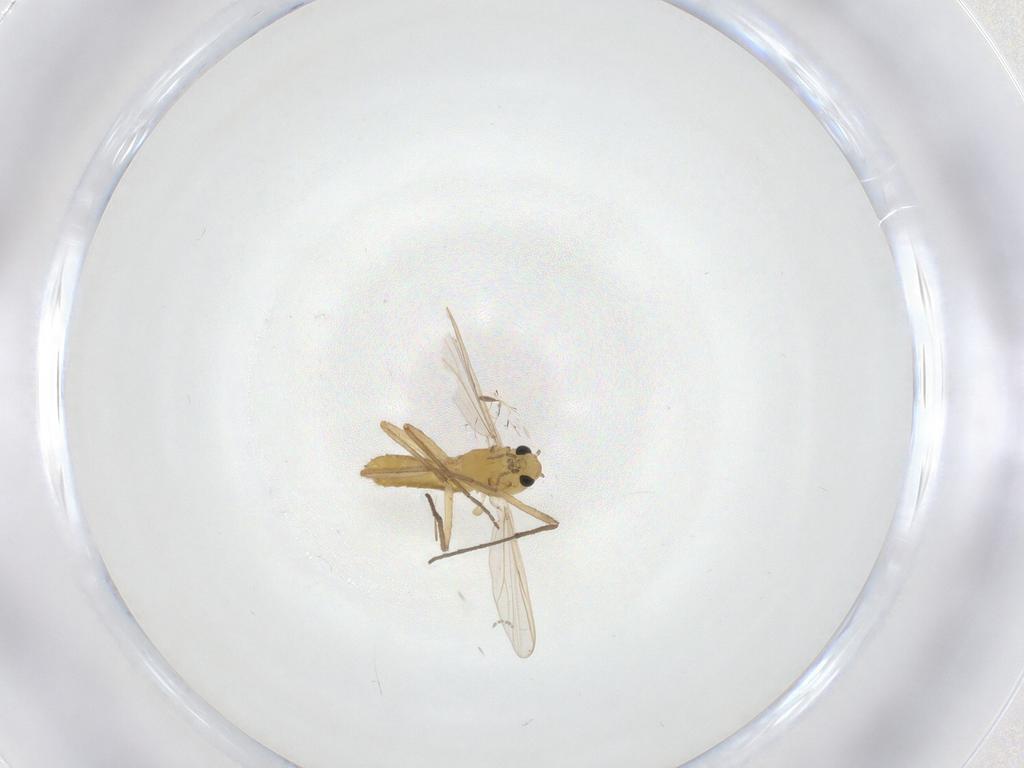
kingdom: Animalia
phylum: Arthropoda
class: Insecta
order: Diptera
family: Chironomidae
